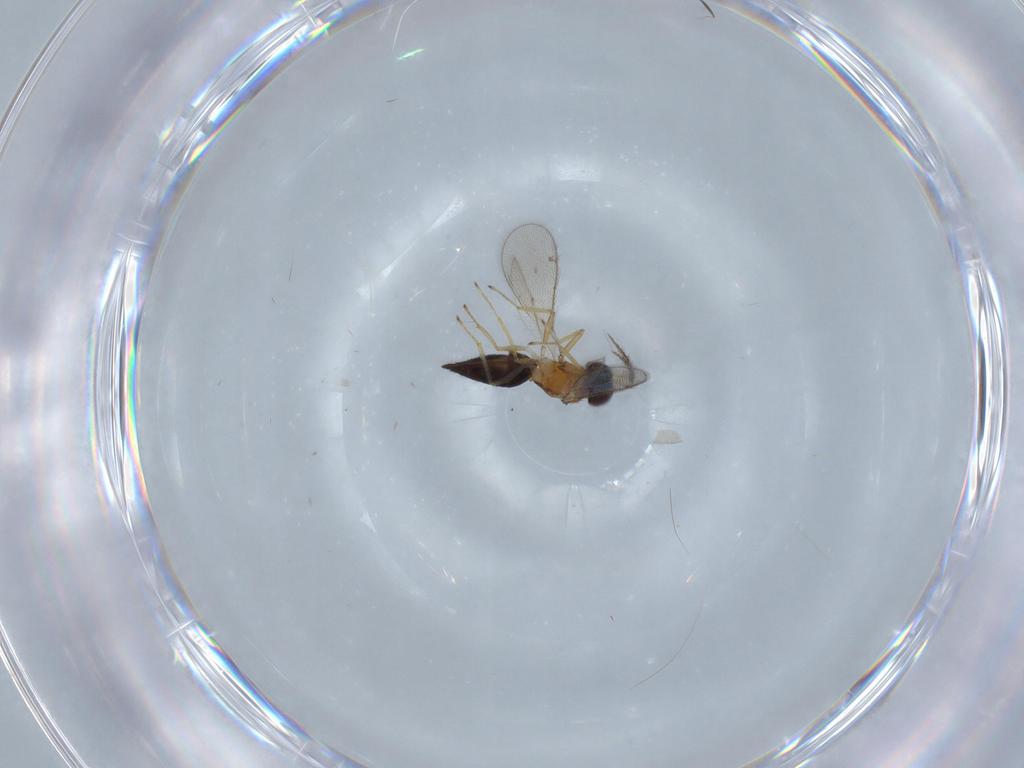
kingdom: Animalia
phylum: Arthropoda
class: Insecta
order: Hymenoptera
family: Eulophidae
